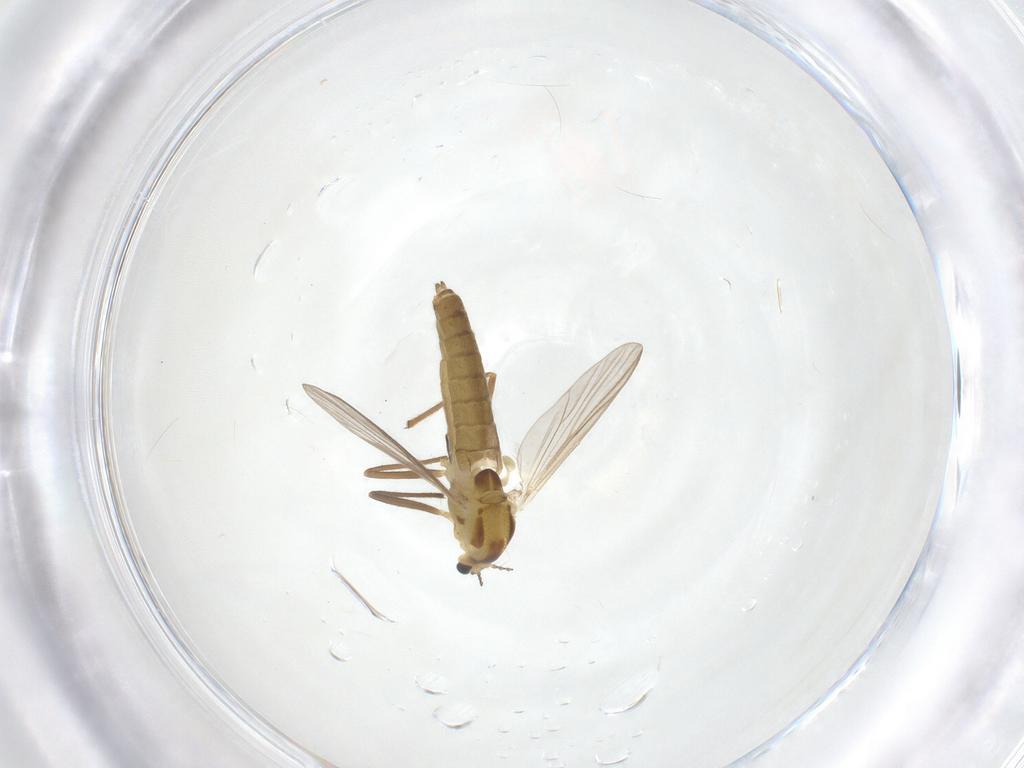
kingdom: Animalia
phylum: Arthropoda
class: Insecta
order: Diptera
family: Chironomidae
